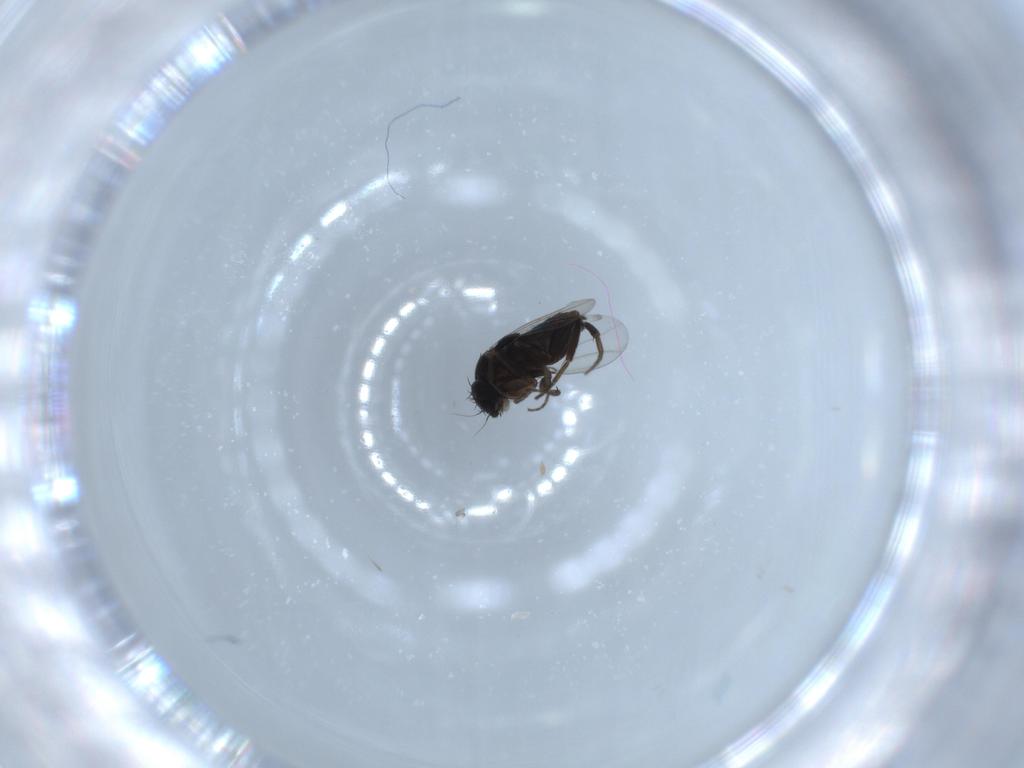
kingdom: Animalia
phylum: Arthropoda
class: Insecta
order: Diptera
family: Phoridae
